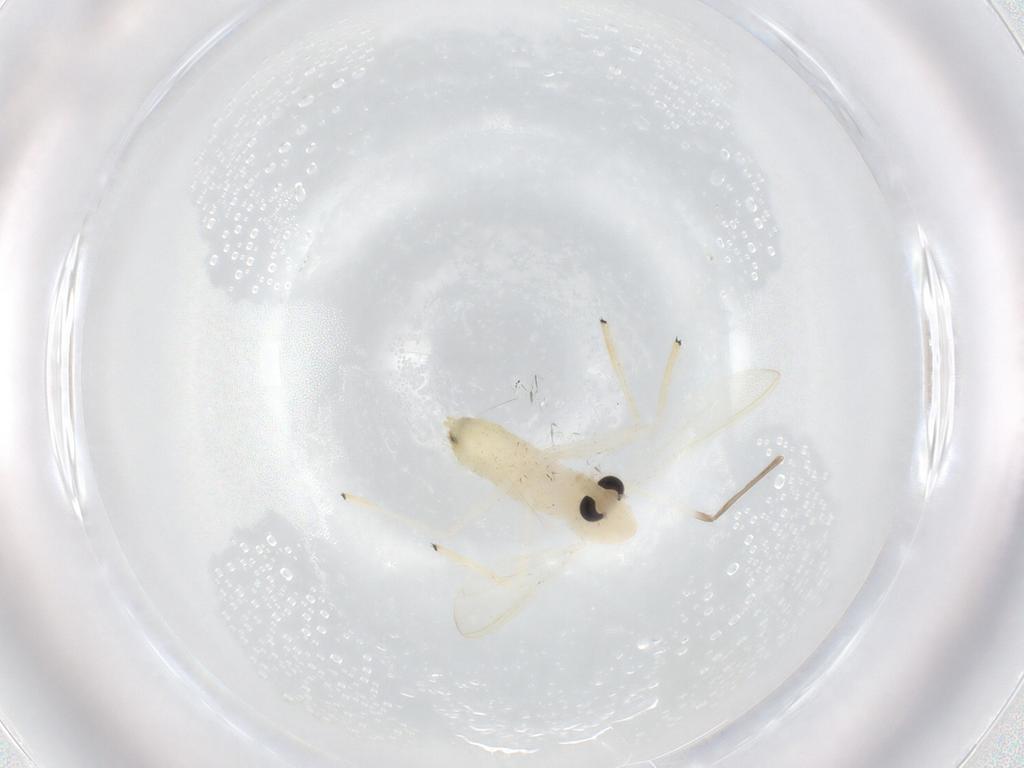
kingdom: Animalia
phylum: Arthropoda
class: Insecta
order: Diptera
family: Chironomidae
